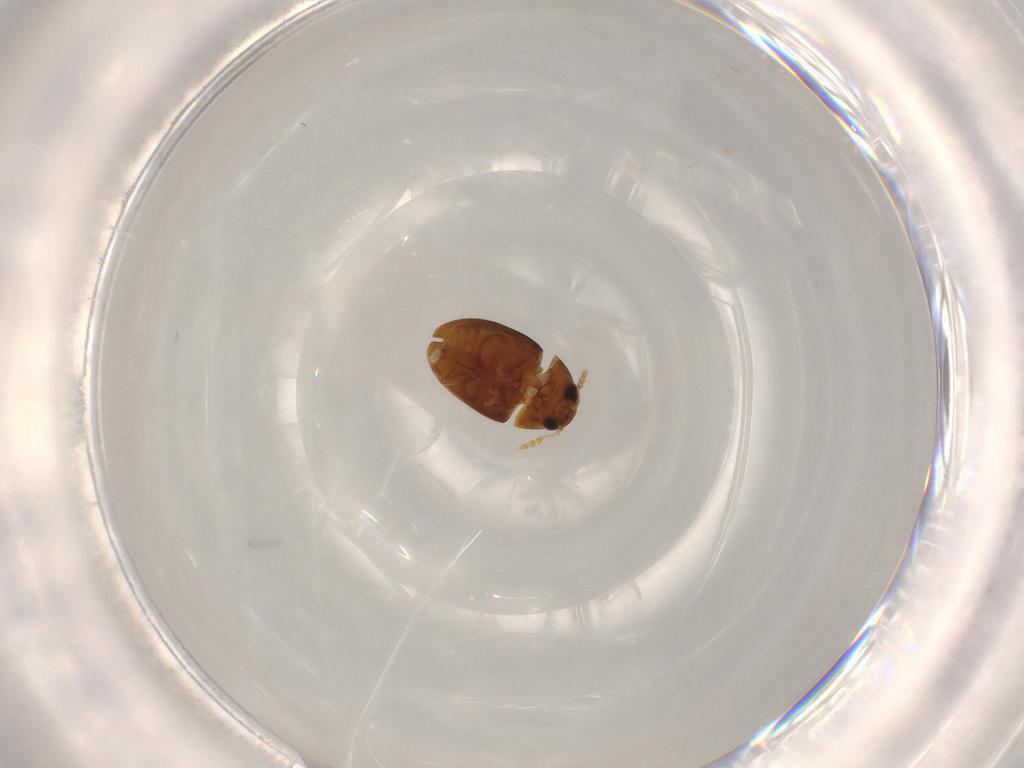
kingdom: Animalia
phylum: Arthropoda
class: Insecta
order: Coleoptera
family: Phalacridae
